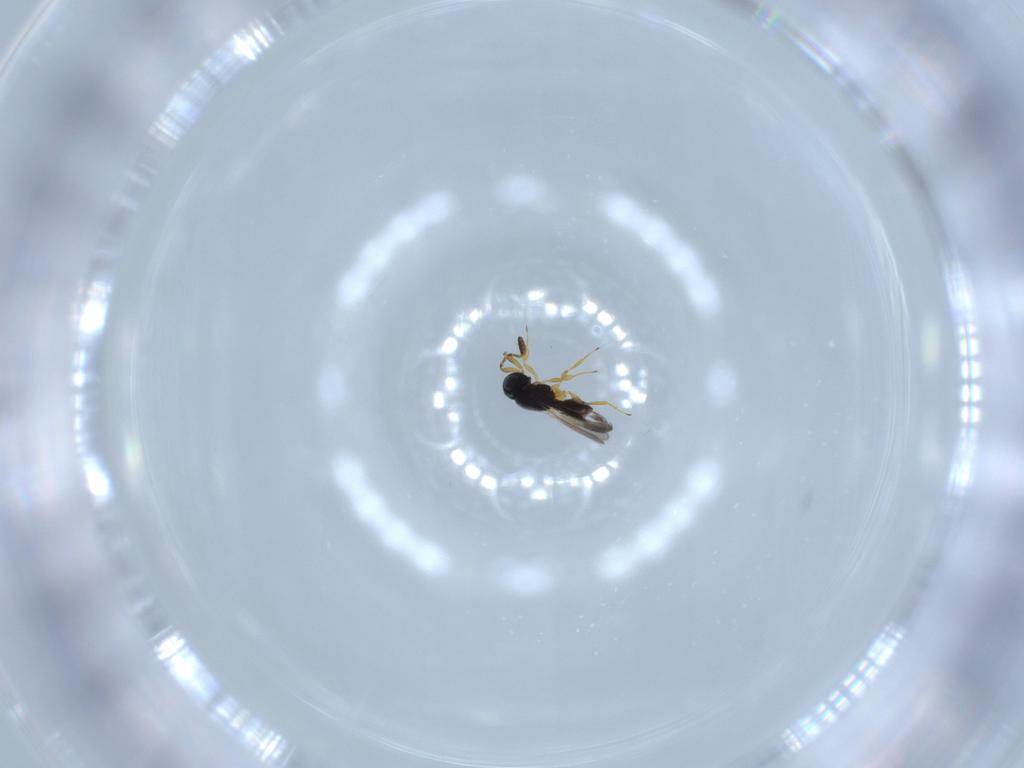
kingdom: Animalia
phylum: Arthropoda
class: Insecta
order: Hymenoptera
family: Scelionidae
